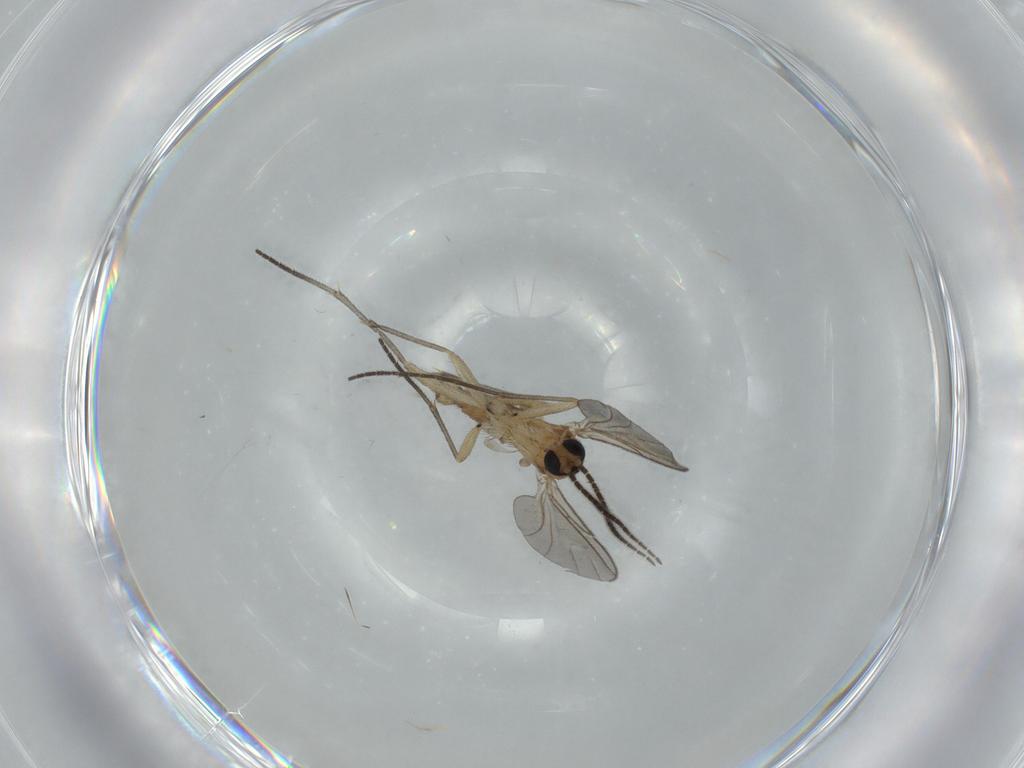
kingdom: Animalia
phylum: Arthropoda
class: Insecta
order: Diptera
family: Sciaridae
